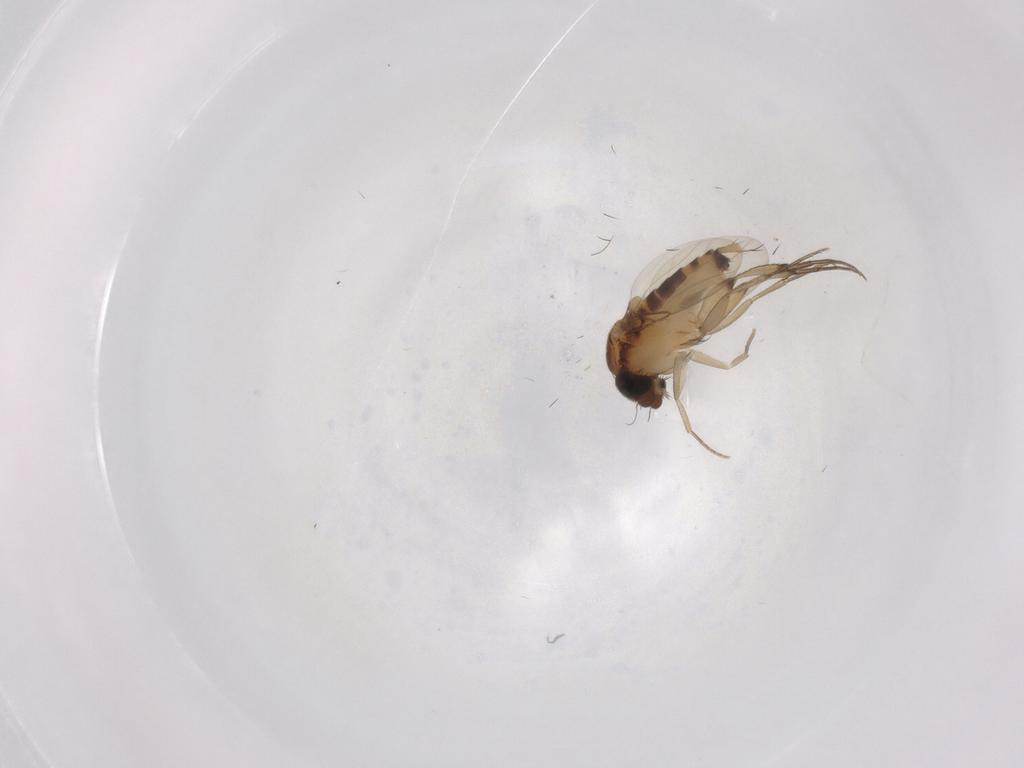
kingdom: Animalia
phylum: Arthropoda
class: Insecta
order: Diptera
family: Phoridae
